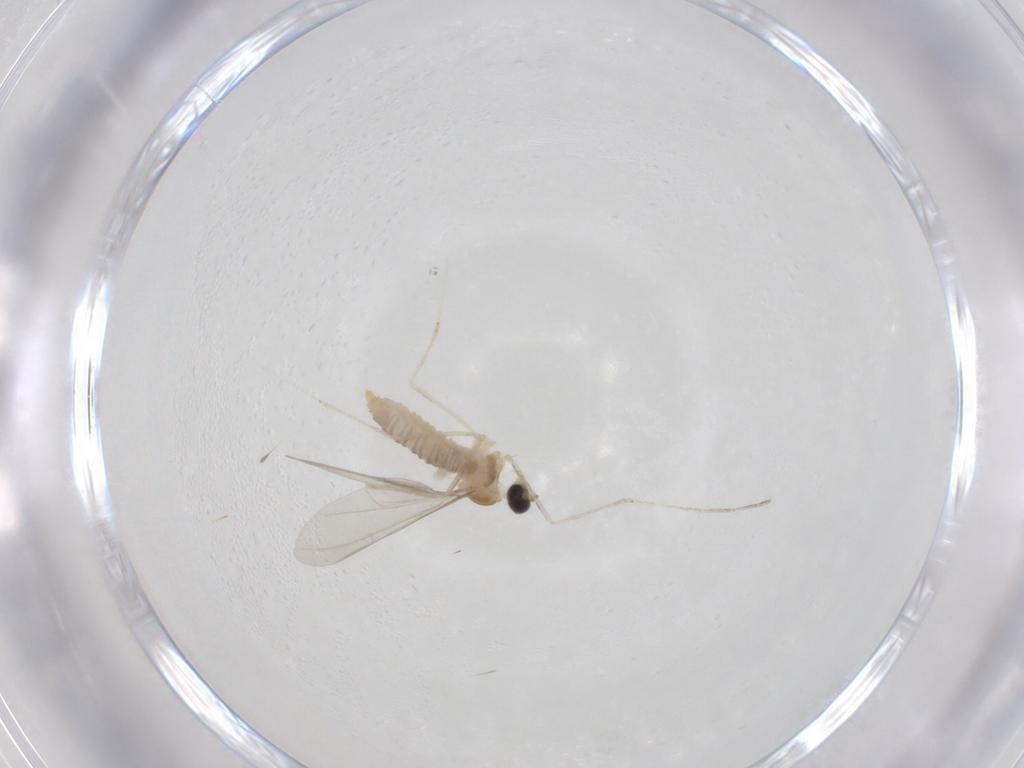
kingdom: Animalia
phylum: Arthropoda
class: Insecta
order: Diptera
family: Cecidomyiidae
